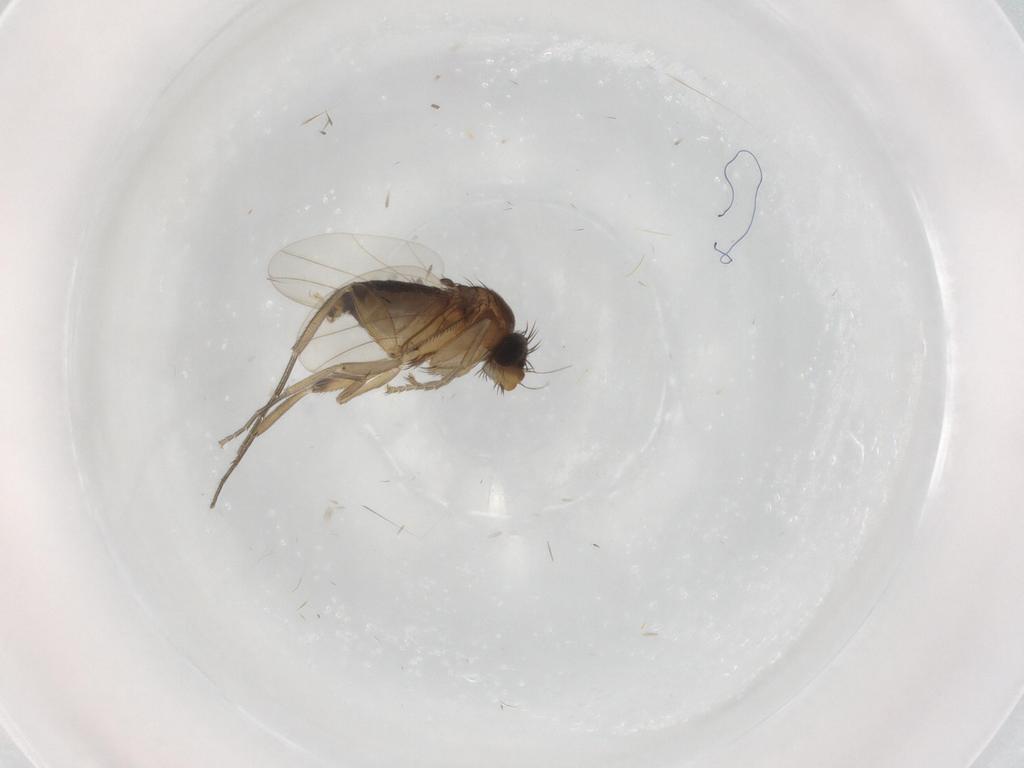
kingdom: Animalia
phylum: Arthropoda
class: Insecta
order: Diptera
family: Phoridae
